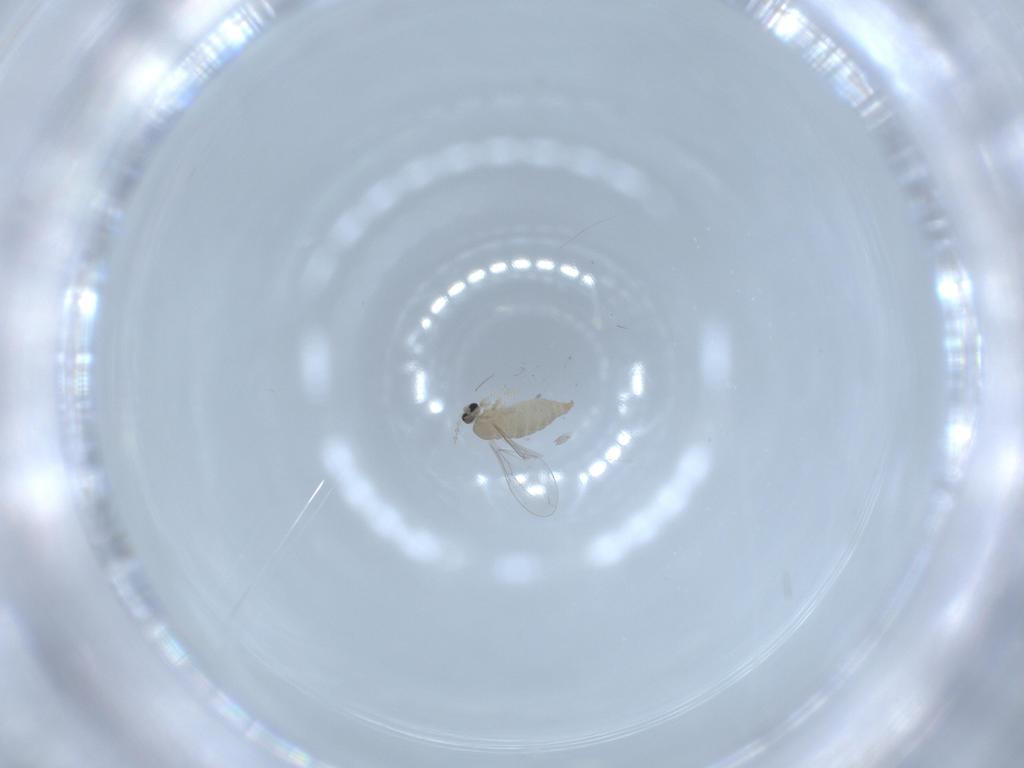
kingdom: Animalia
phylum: Arthropoda
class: Insecta
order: Diptera
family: Cecidomyiidae
